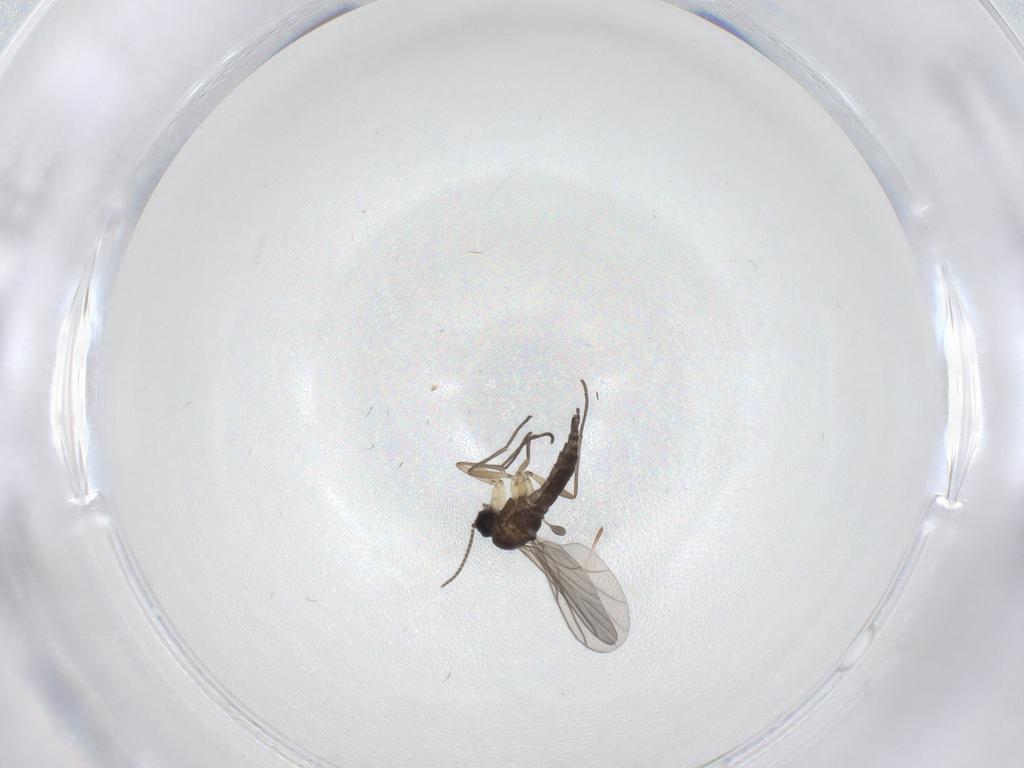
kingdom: Animalia
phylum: Arthropoda
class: Insecta
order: Diptera
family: Sciaridae
